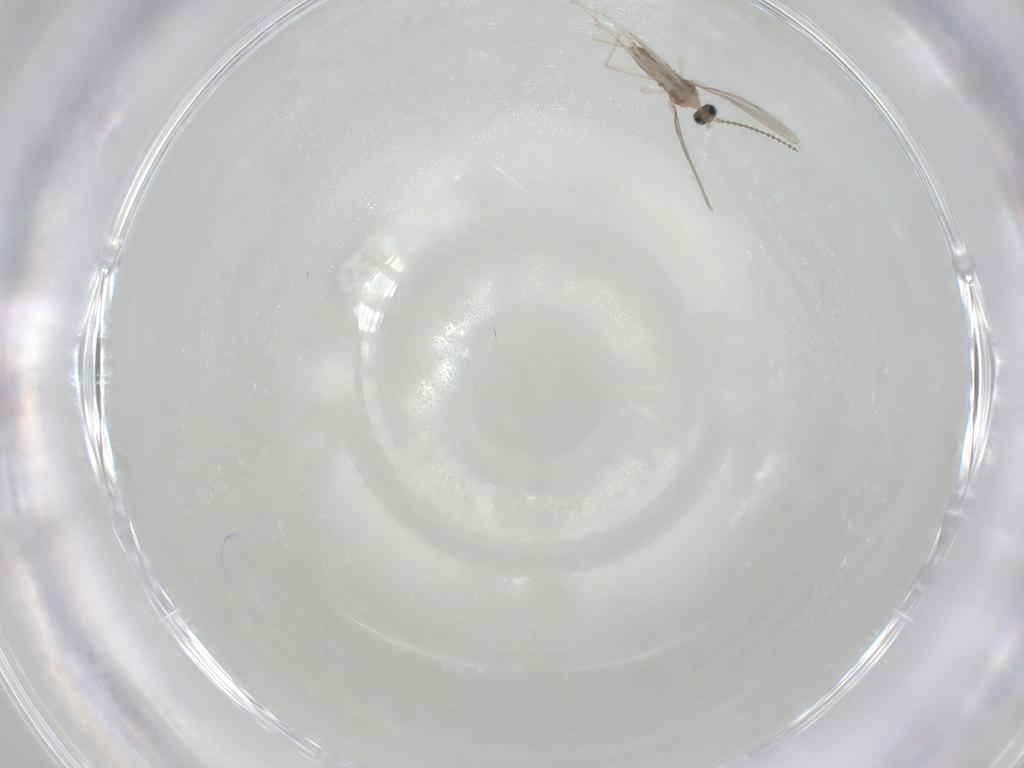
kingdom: Animalia
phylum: Arthropoda
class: Insecta
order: Diptera
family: Cecidomyiidae
